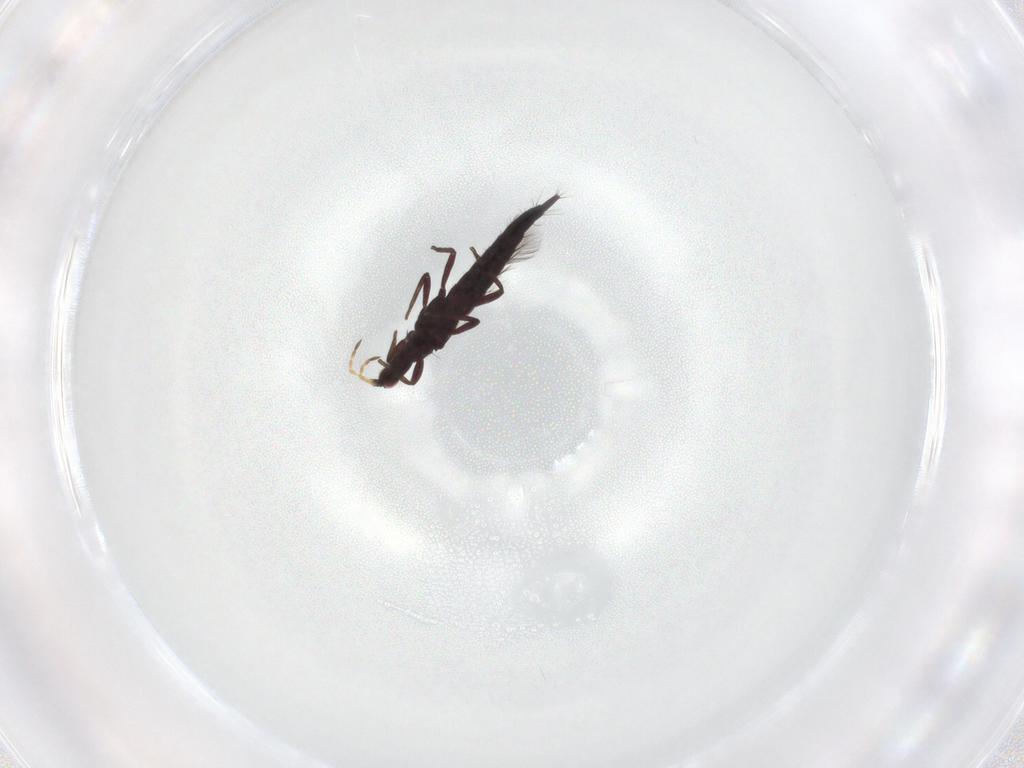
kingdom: Animalia
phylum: Arthropoda
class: Insecta
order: Thysanoptera
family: Phlaeothripidae
